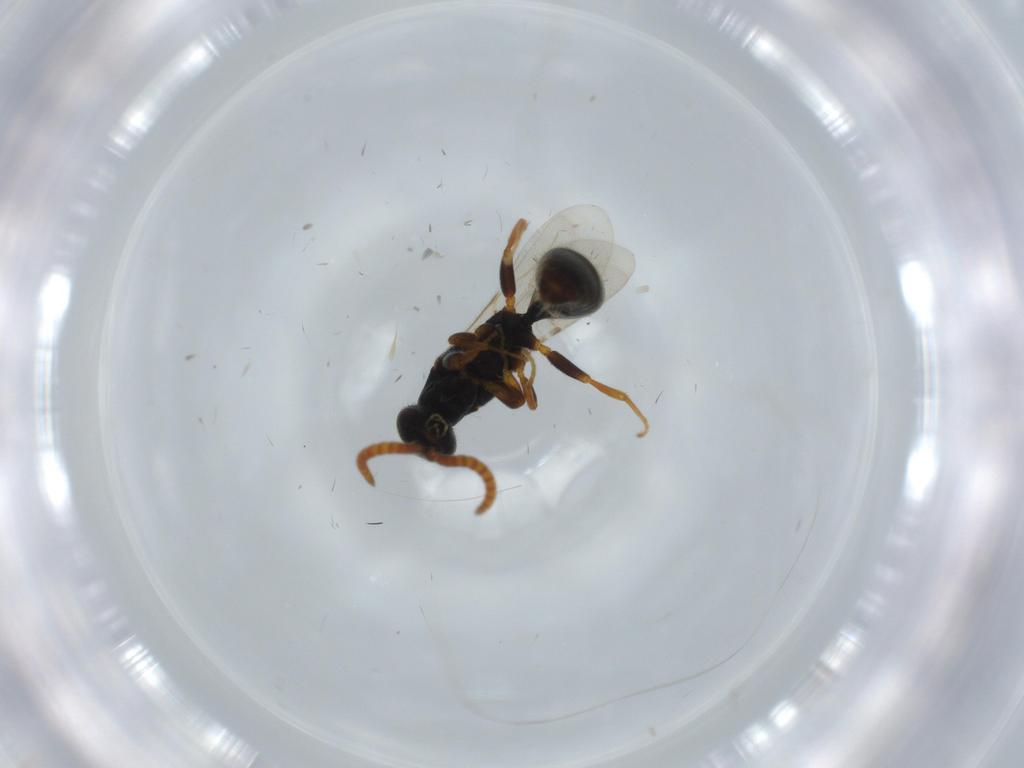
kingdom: Animalia
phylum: Arthropoda
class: Insecta
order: Hymenoptera
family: Bethylidae
